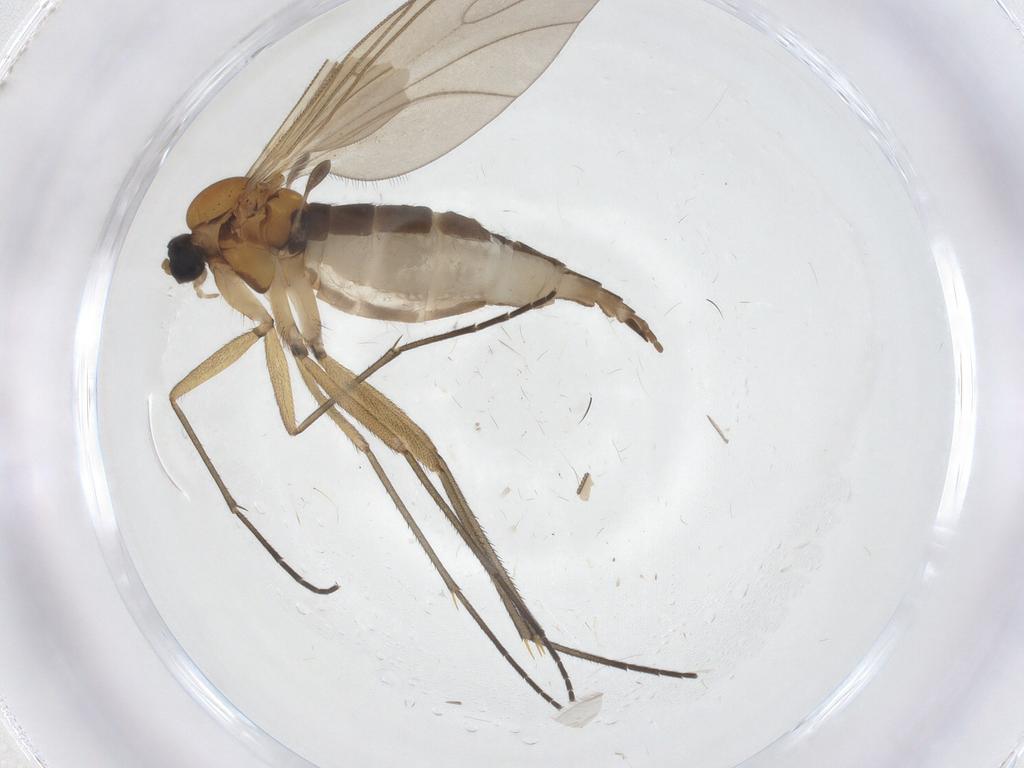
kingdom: Animalia
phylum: Arthropoda
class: Insecta
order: Diptera
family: Sciaridae
